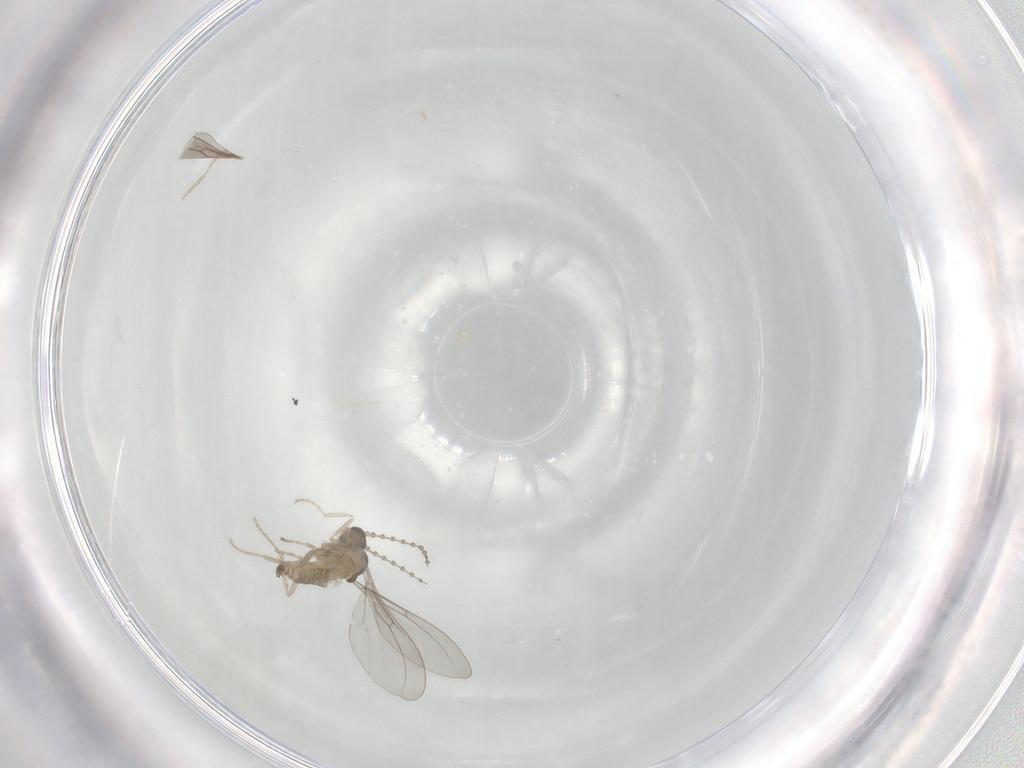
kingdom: Animalia
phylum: Arthropoda
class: Insecta
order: Diptera
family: Cecidomyiidae
